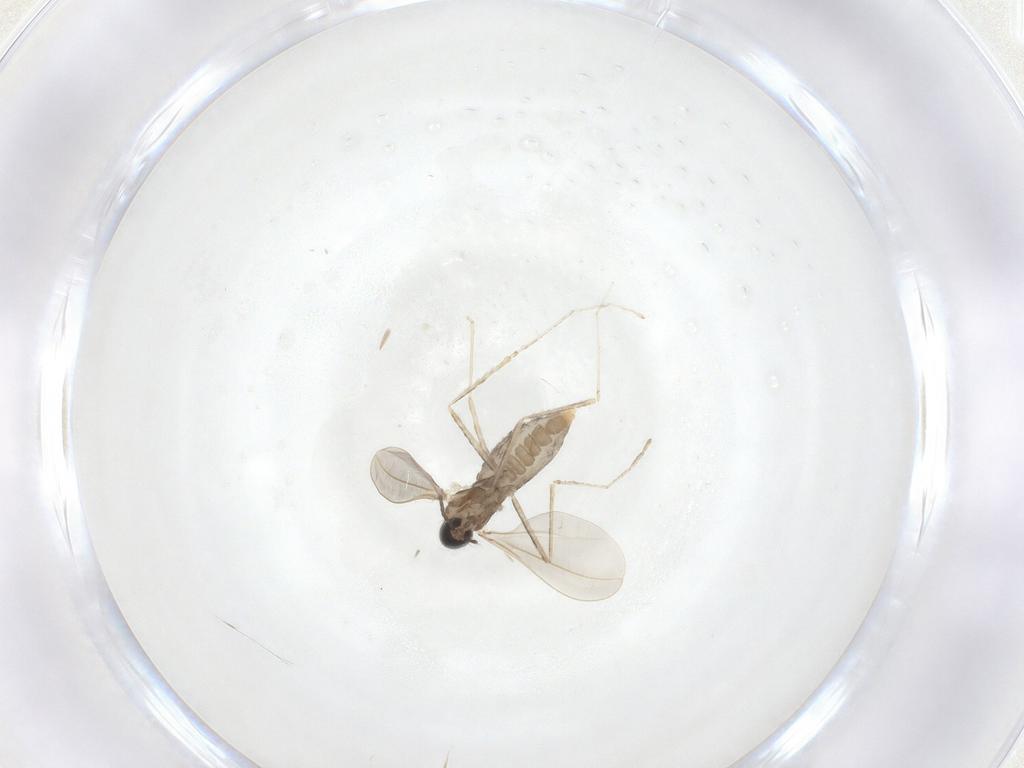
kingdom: Animalia
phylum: Arthropoda
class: Insecta
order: Diptera
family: Cecidomyiidae
